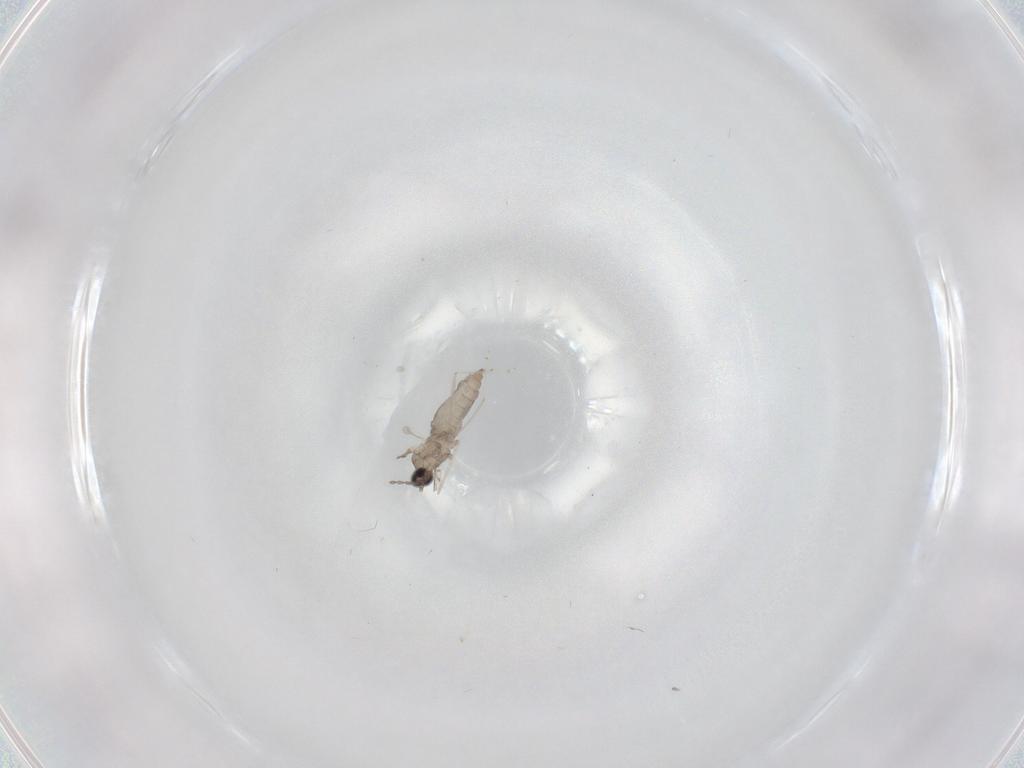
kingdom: Animalia
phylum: Arthropoda
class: Insecta
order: Diptera
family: Cecidomyiidae
